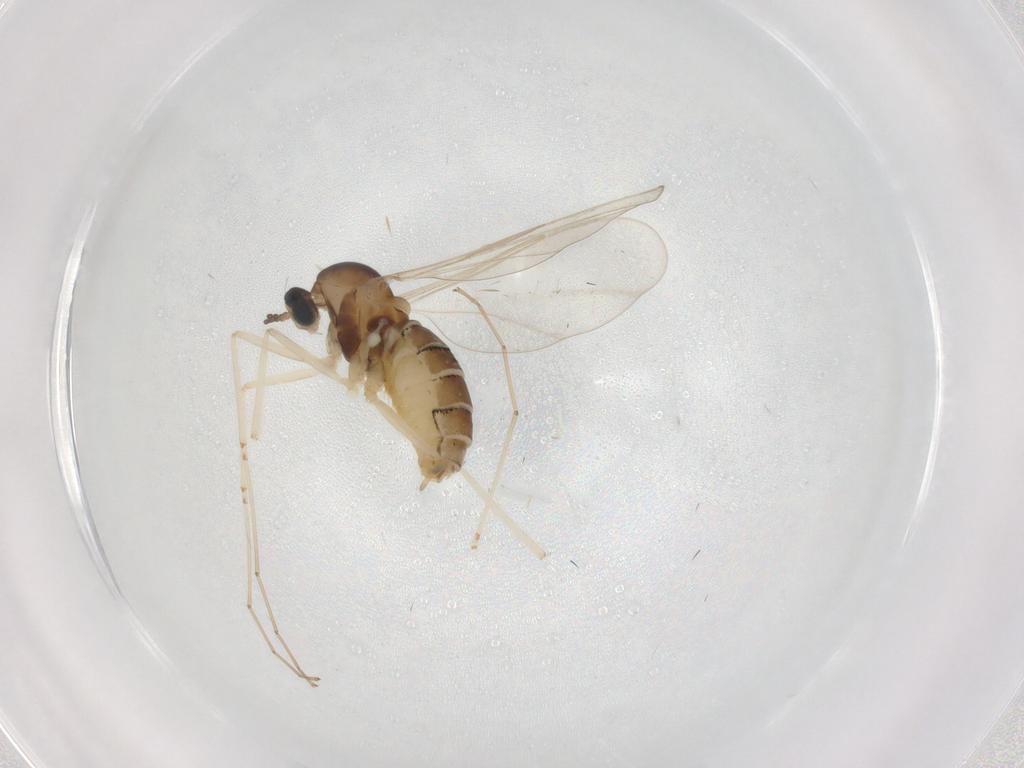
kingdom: Animalia
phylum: Arthropoda
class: Insecta
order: Diptera
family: Cecidomyiidae
